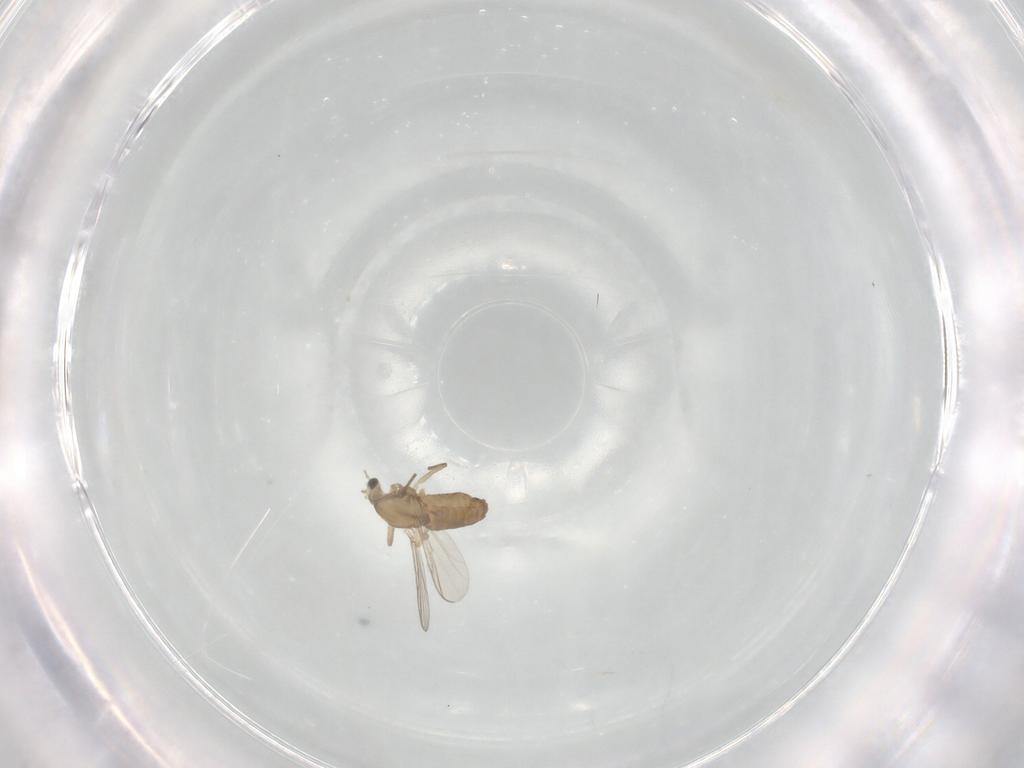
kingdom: Animalia
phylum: Arthropoda
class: Insecta
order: Diptera
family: Chironomidae
